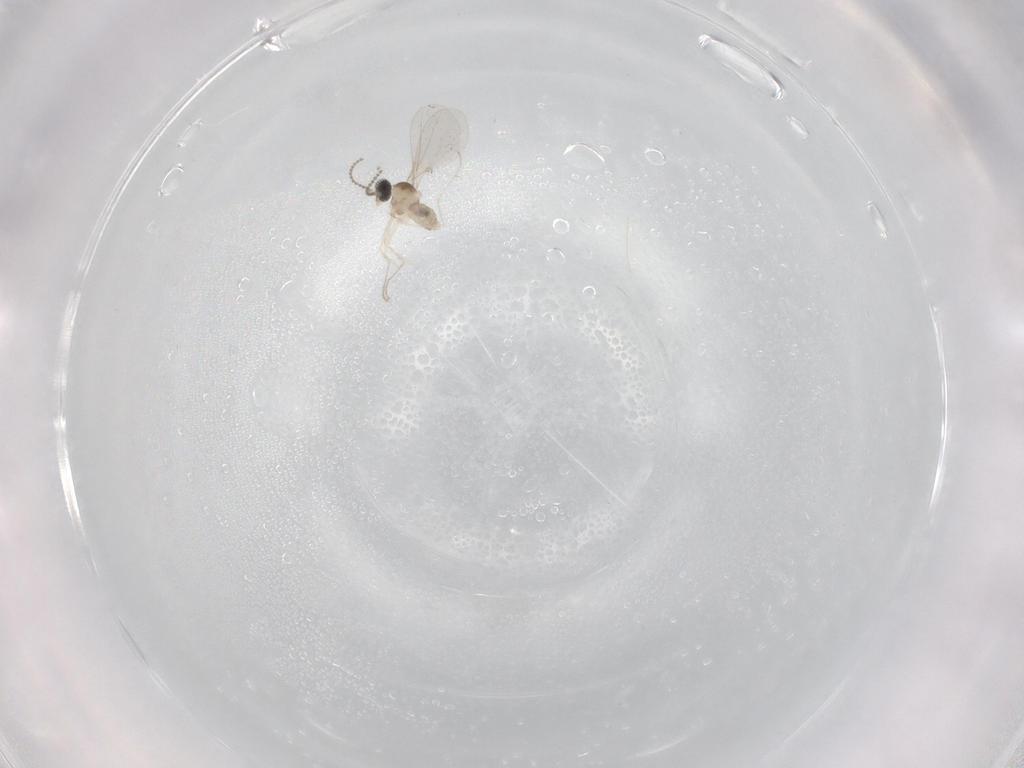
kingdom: Animalia
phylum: Arthropoda
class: Insecta
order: Diptera
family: Cecidomyiidae
